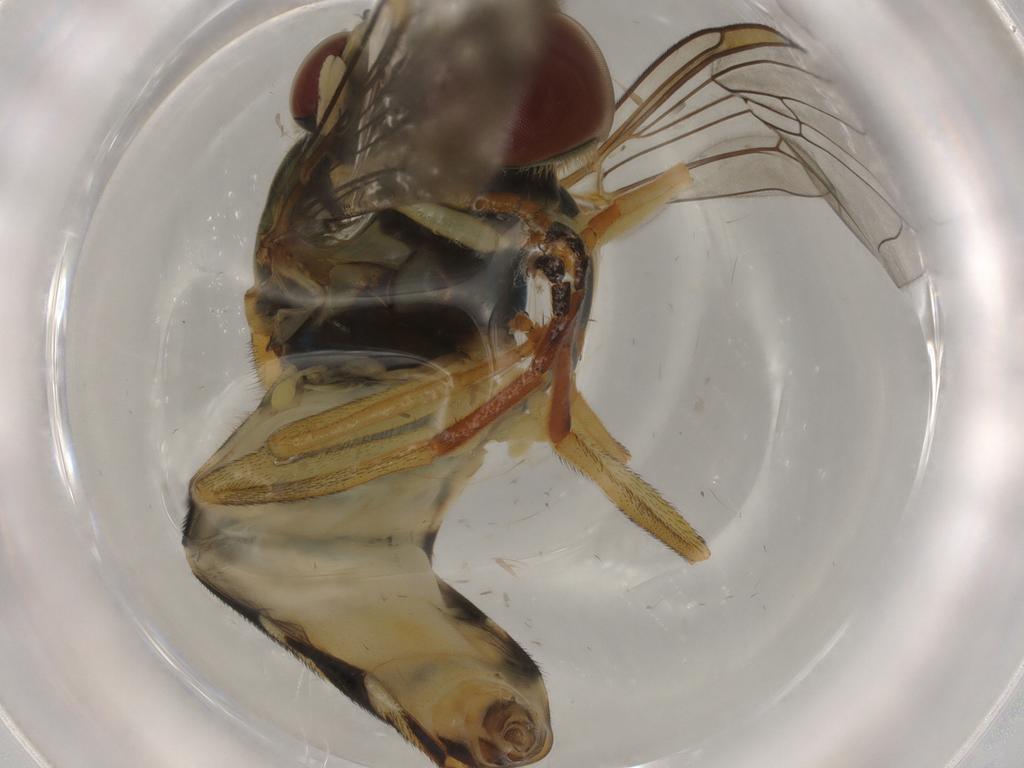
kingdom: Animalia
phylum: Arthropoda
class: Insecta
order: Diptera
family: Syrphidae
